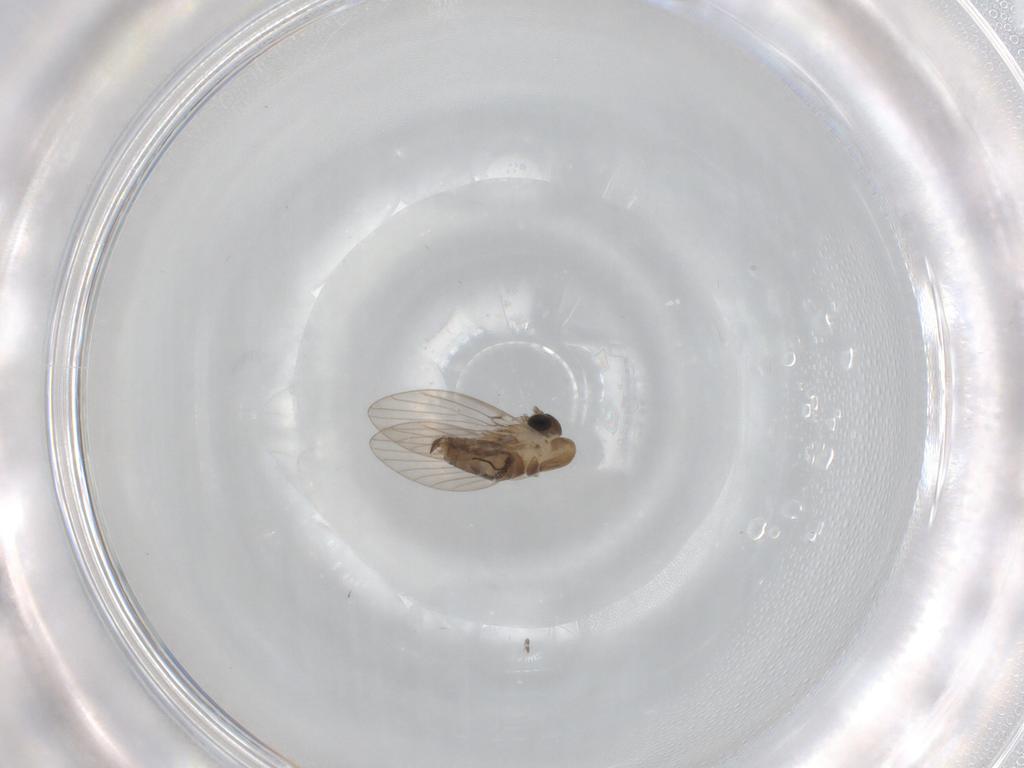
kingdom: Animalia
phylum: Arthropoda
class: Insecta
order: Diptera
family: Psychodidae
